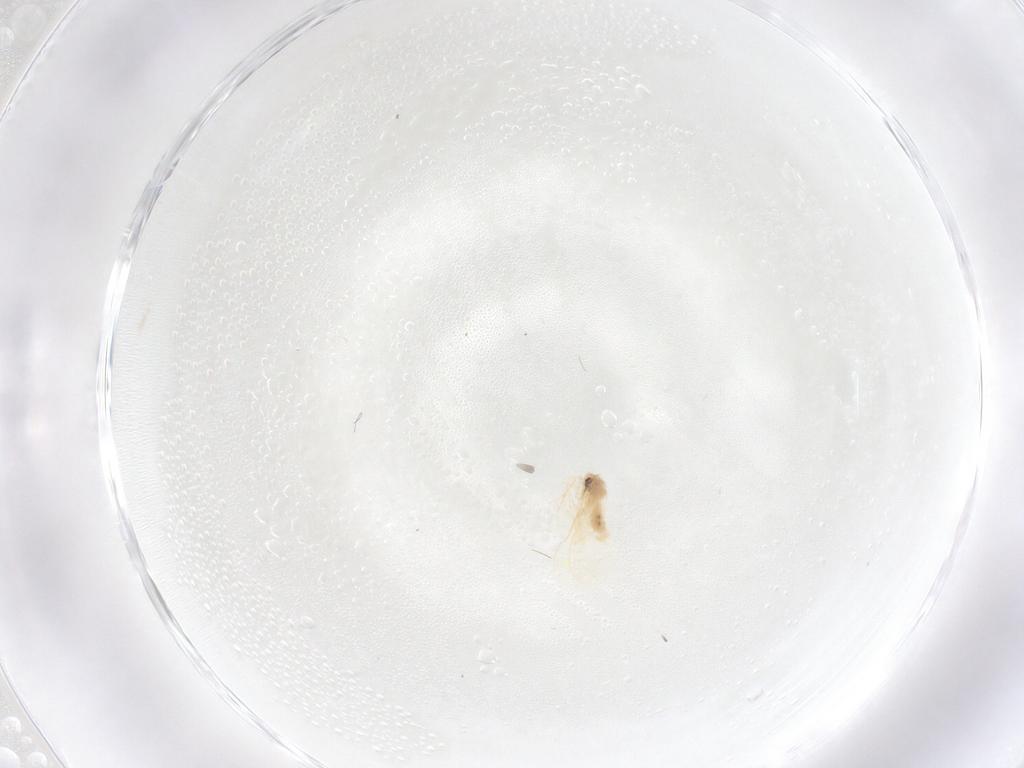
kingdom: Animalia
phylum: Arthropoda
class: Insecta
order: Hemiptera
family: Aleyrodidae
